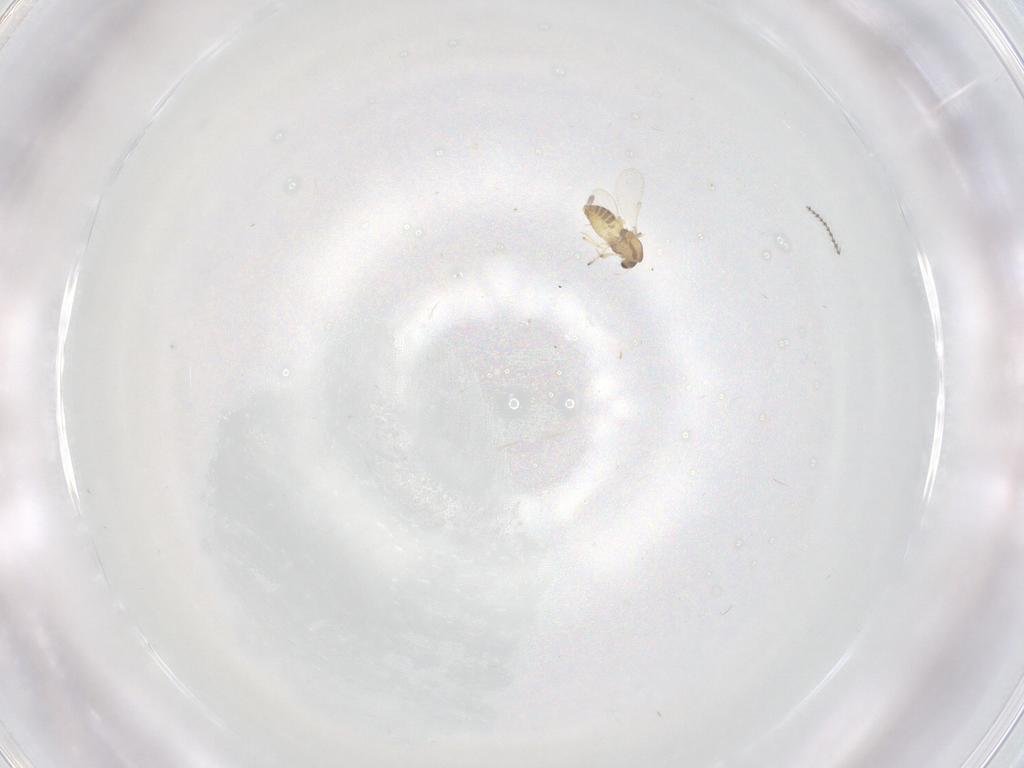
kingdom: Animalia
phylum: Arthropoda
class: Insecta
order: Diptera
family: Chironomidae
